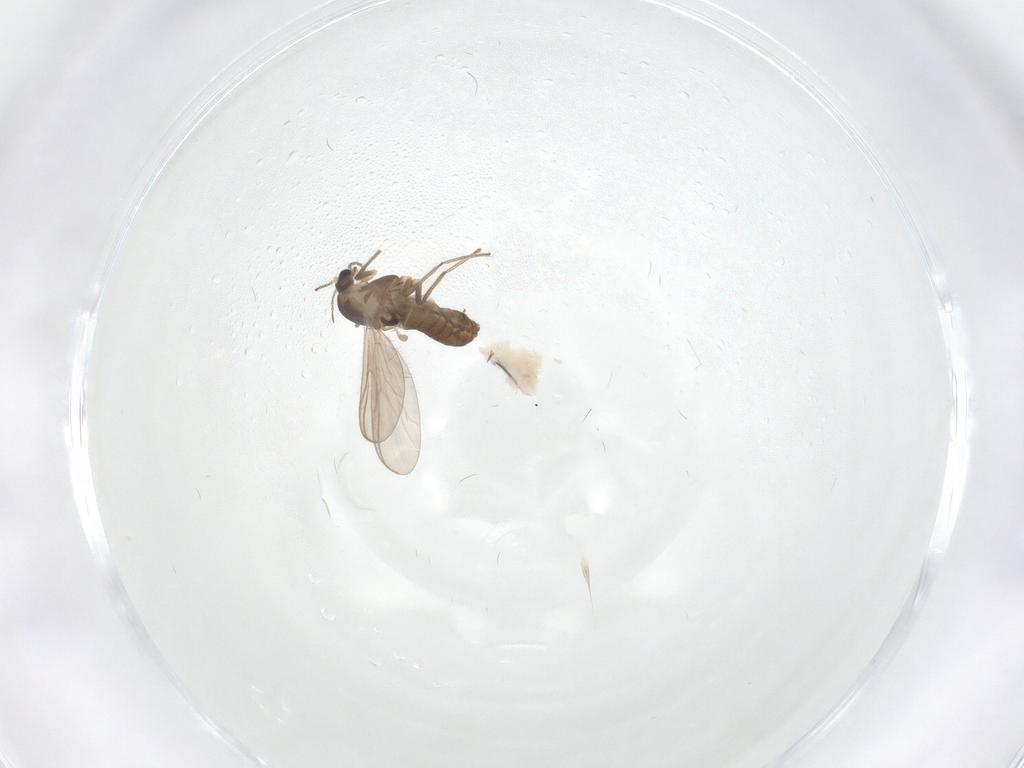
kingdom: Animalia
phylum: Arthropoda
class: Insecta
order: Diptera
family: Chironomidae
